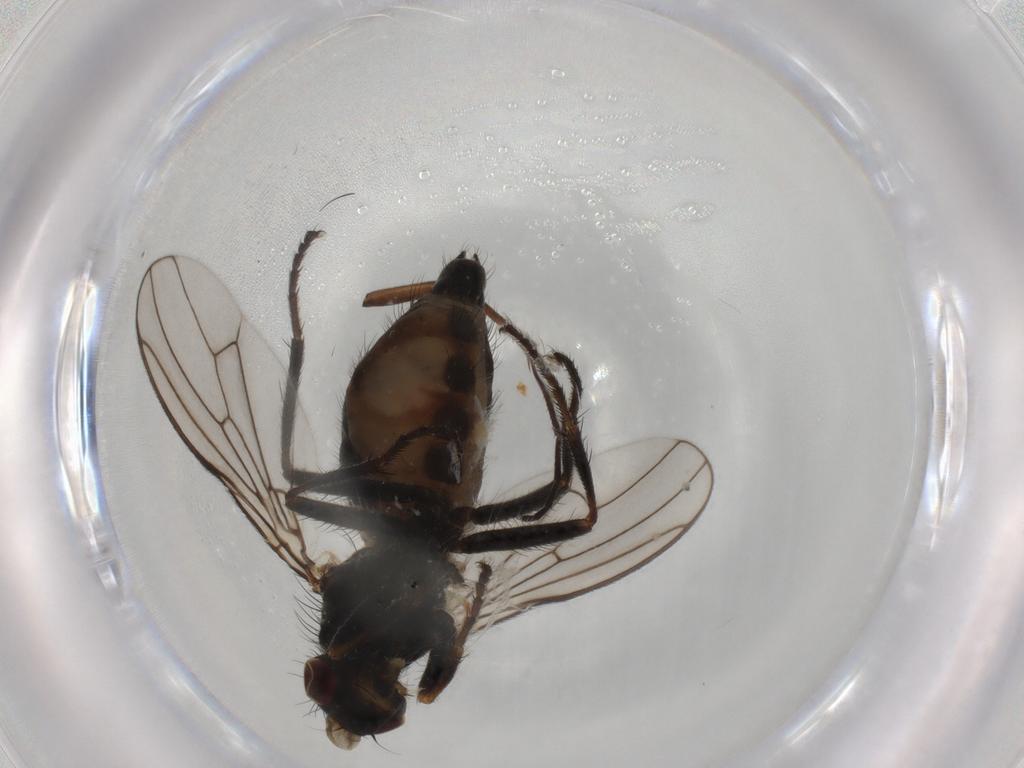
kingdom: Animalia
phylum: Arthropoda
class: Insecta
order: Diptera
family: Scathophagidae
